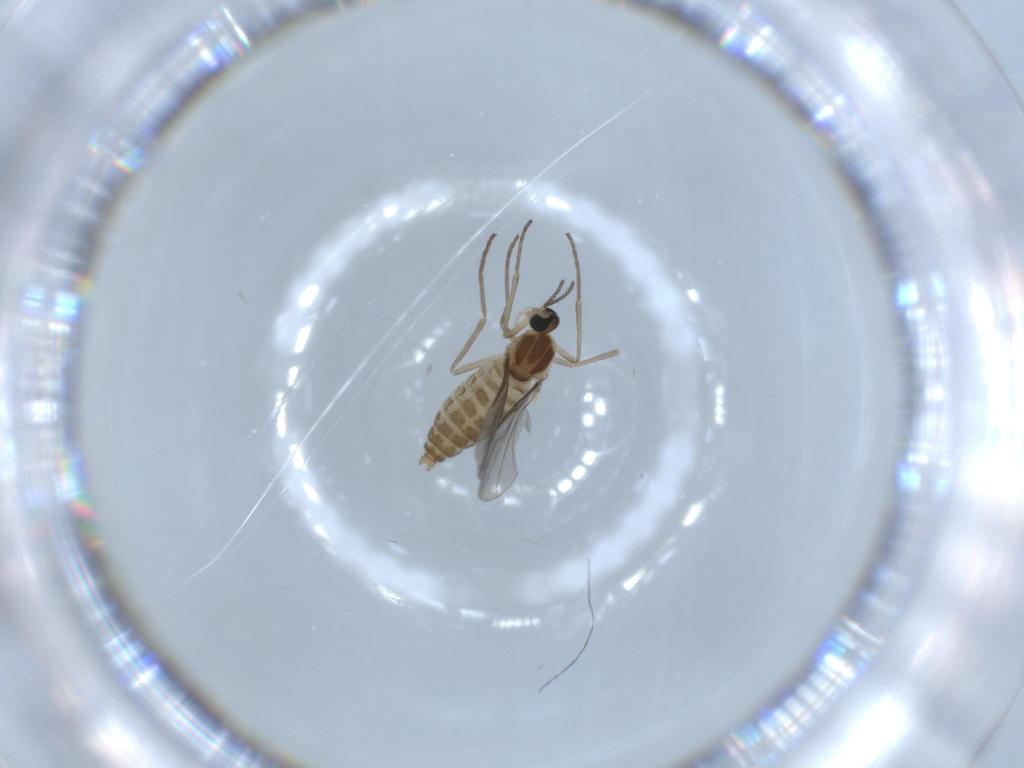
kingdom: Animalia
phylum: Arthropoda
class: Insecta
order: Diptera
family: Cecidomyiidae
